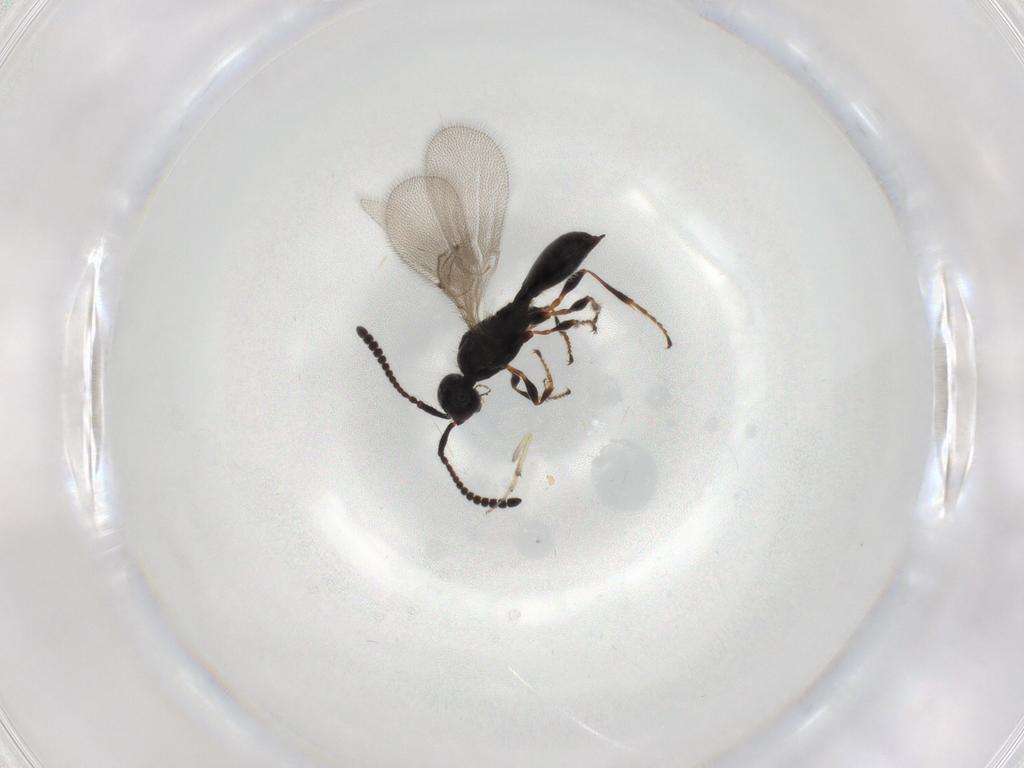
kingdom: Animalia
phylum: Arthropoda
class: Insecta
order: Hymenoptera
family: Diapriidae
